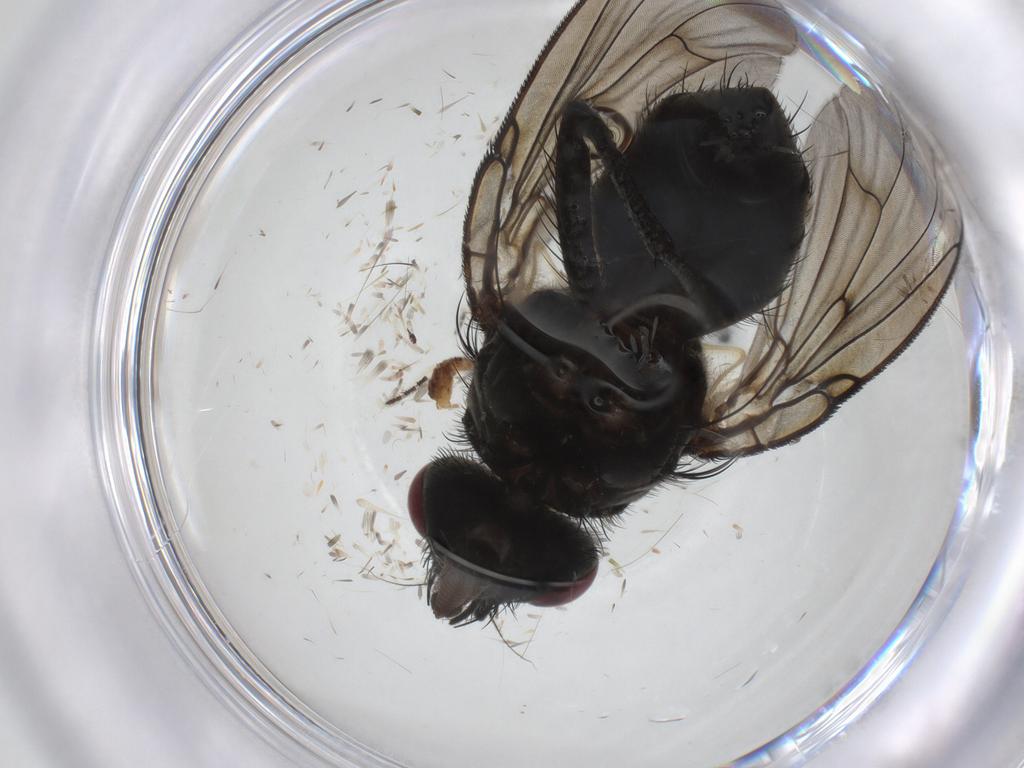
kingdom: Animalia
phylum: Arthropoda
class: Insecta
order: Diptera
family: Muscidae
